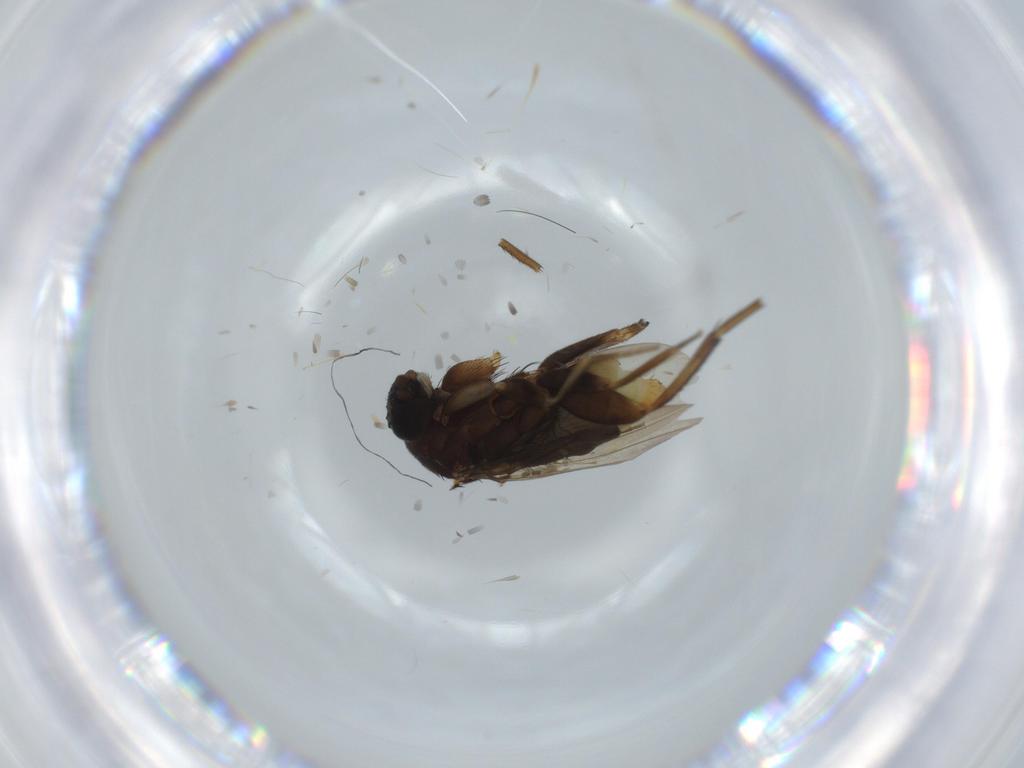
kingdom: Animalia
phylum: Arthropoda
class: Insecta
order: Diptera
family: Phoridae
